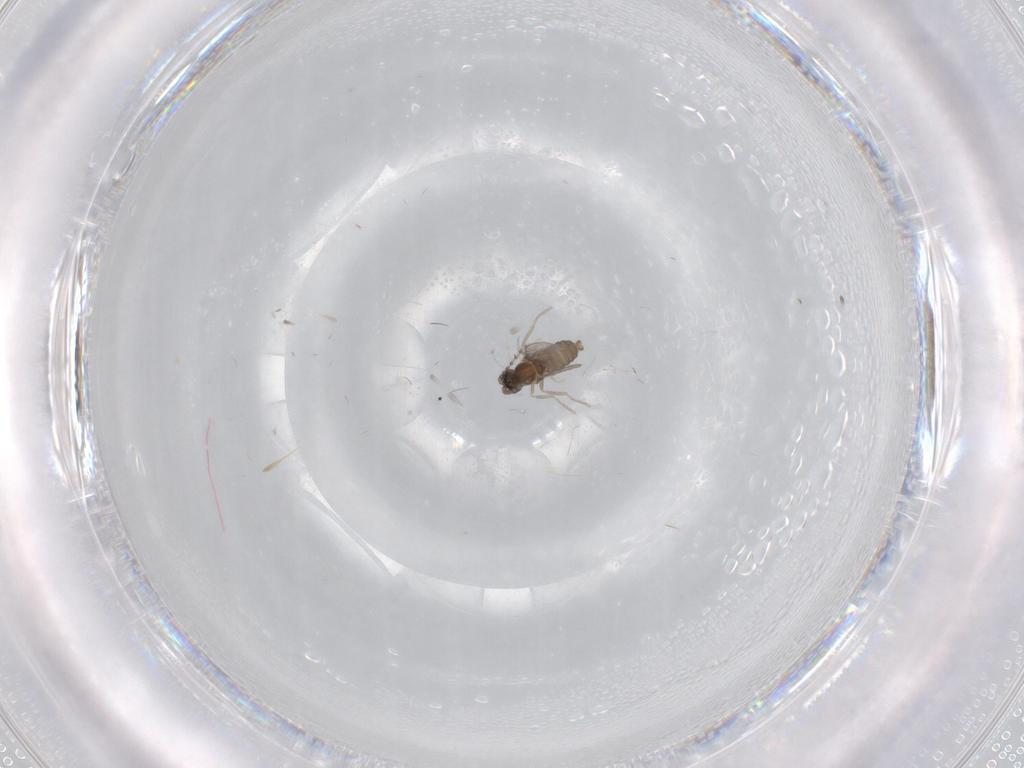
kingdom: Animalia
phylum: Arthropoda
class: Insecta
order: Diptera
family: Cecidomyiidae
